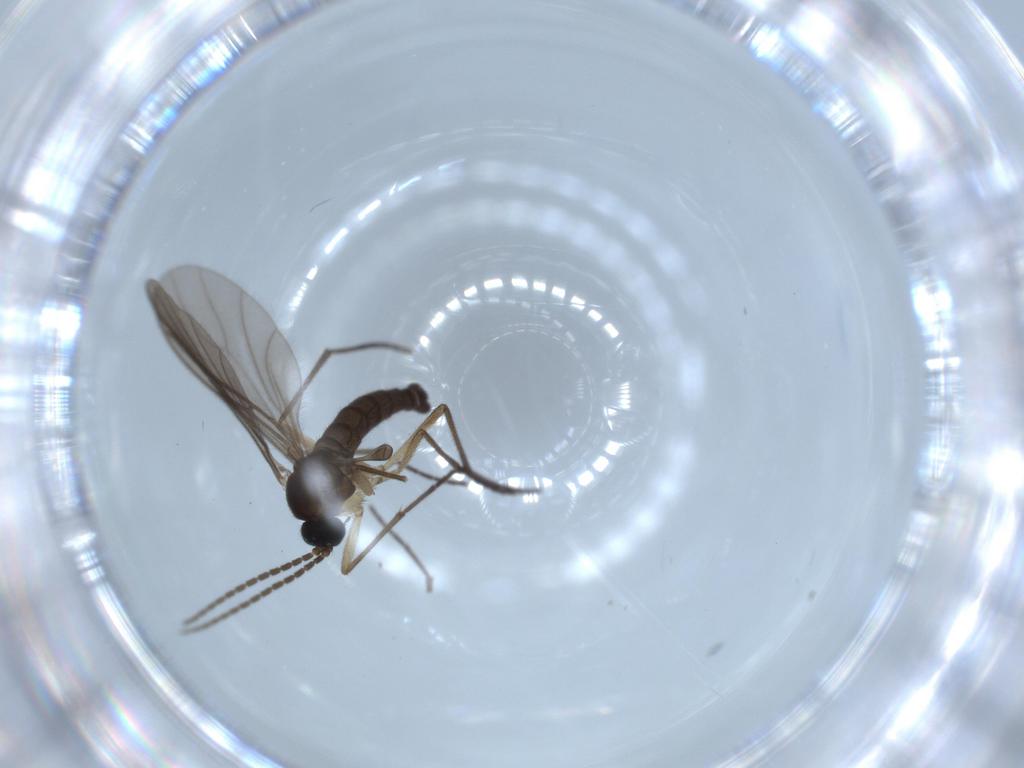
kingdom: Animalia
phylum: Arthropoda
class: Insecta
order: Diptera
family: Sciaridae
